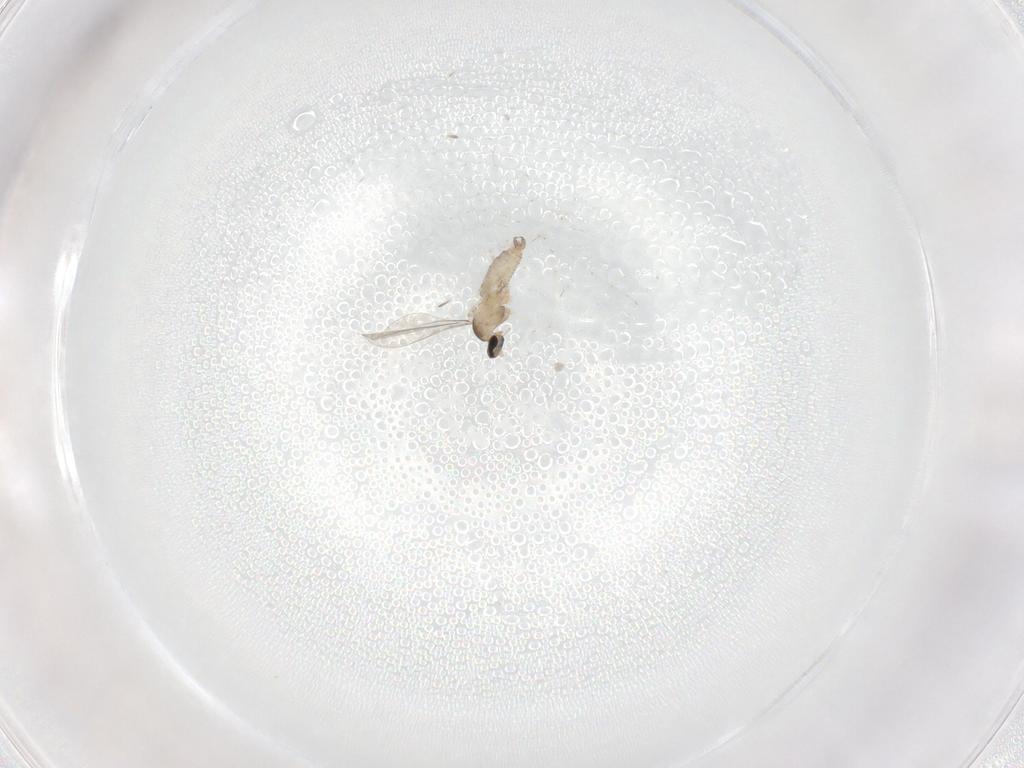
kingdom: Animalia
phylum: Arthropoda
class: Insecta
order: Diptera
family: Cecidomyiidae
